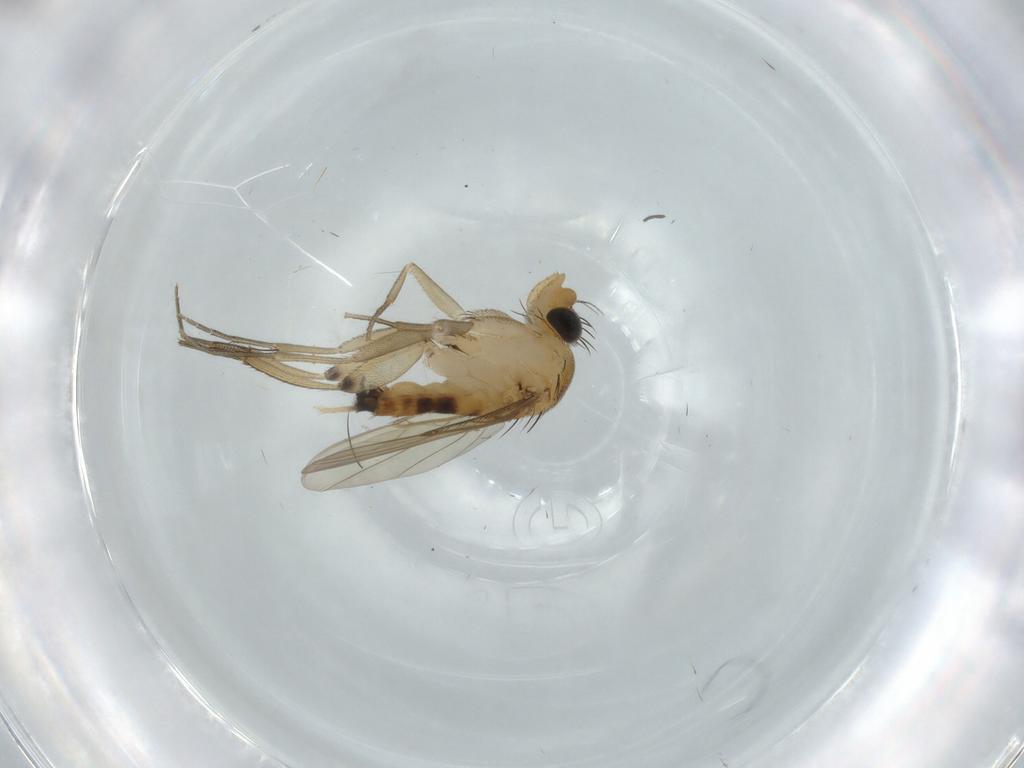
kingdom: Animalia
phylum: Arthropoda
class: Insecta
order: Diptera
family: Phoridae
